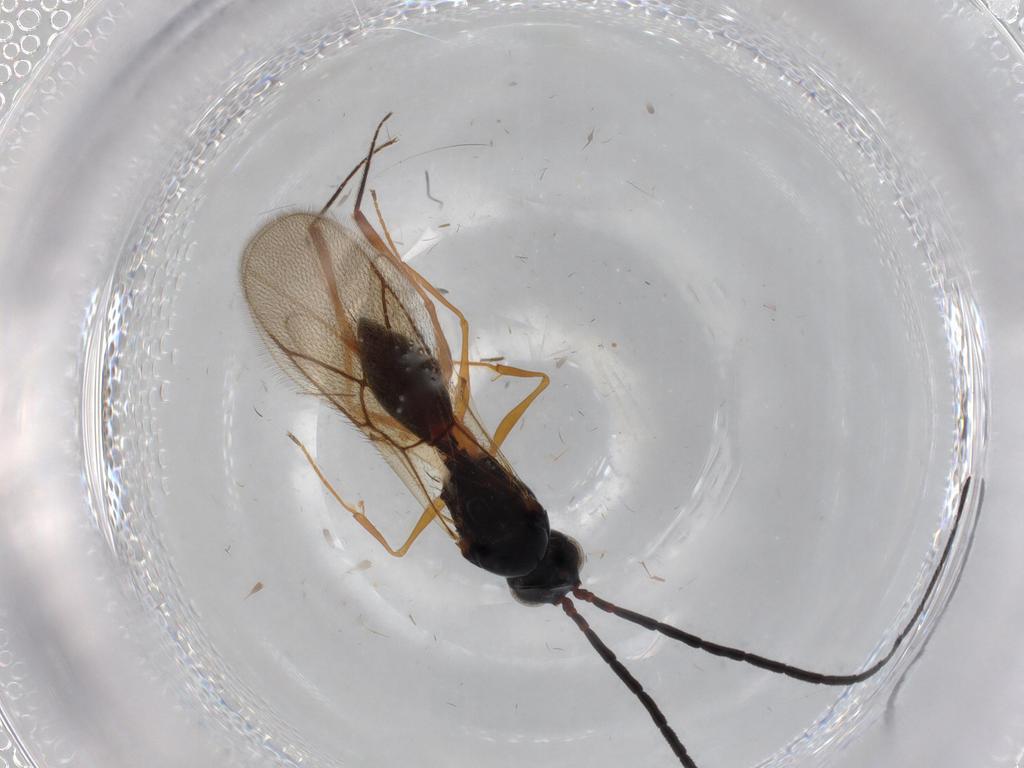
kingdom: Animalia
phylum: Arthropoda
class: Insecta
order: Hymenoptera
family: Figitidae
